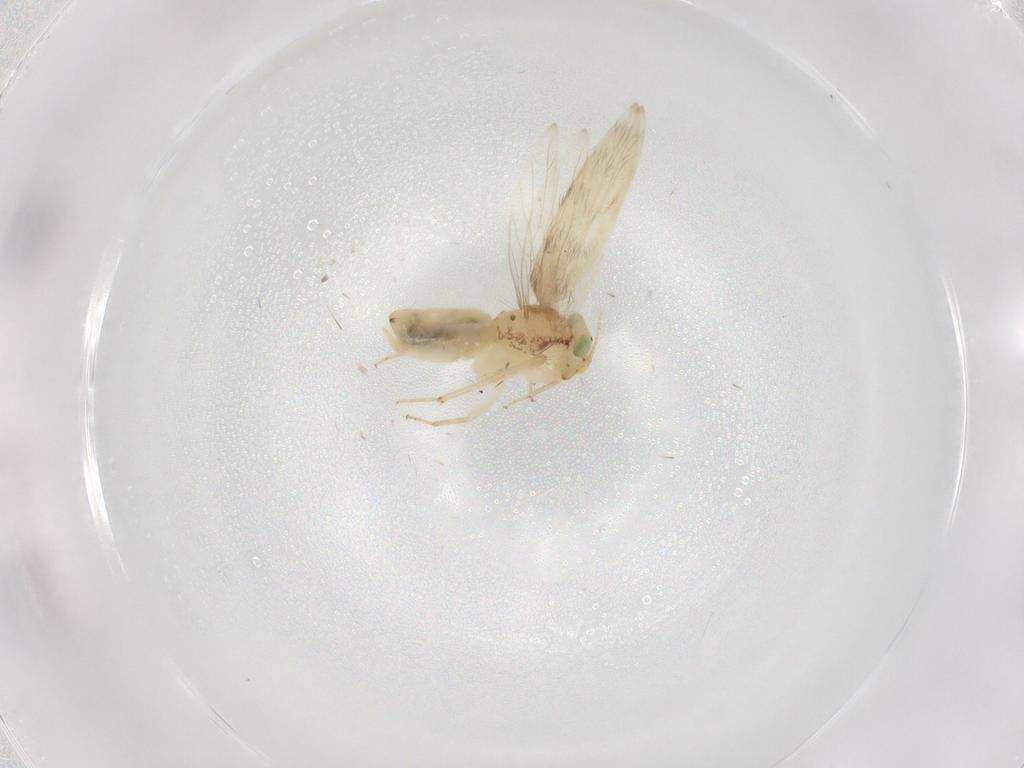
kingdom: Animalia
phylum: Arthropoda
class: Insecta
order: Psocodea
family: Lepidopsocidae
